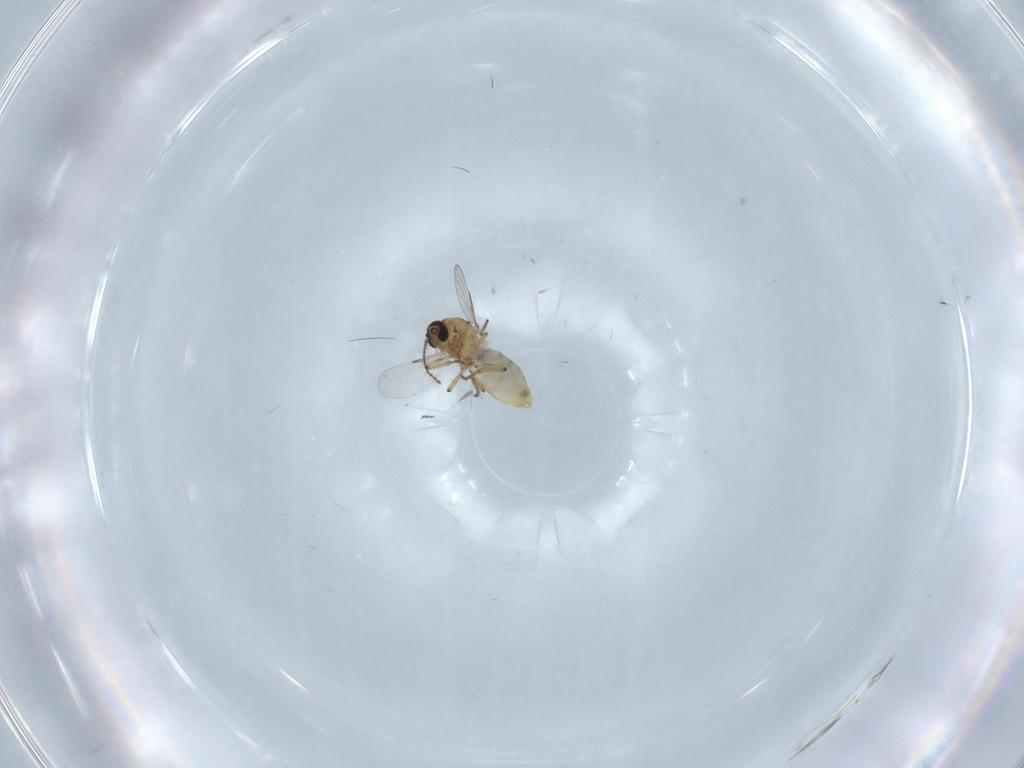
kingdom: Animalia
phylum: Arthropoda
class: Insecta
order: Diptera
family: Ceratopogonidae
